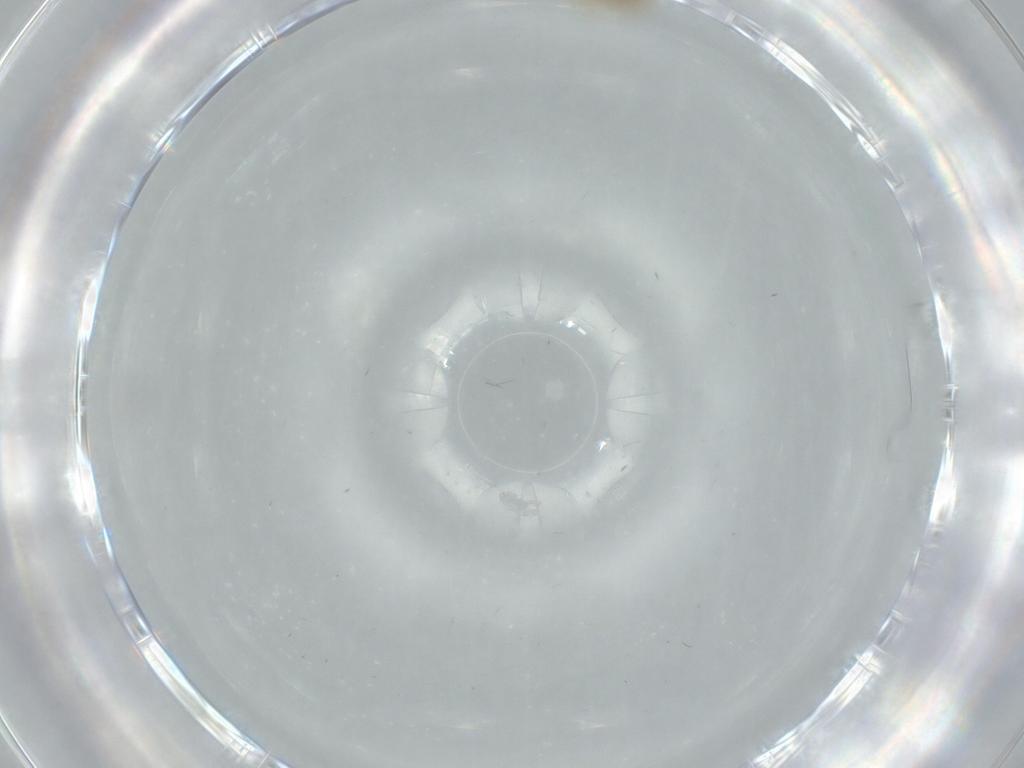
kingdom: Animalia
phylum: Arthropoda
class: Insecta
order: Hemiptera
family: Aleyrodidae
